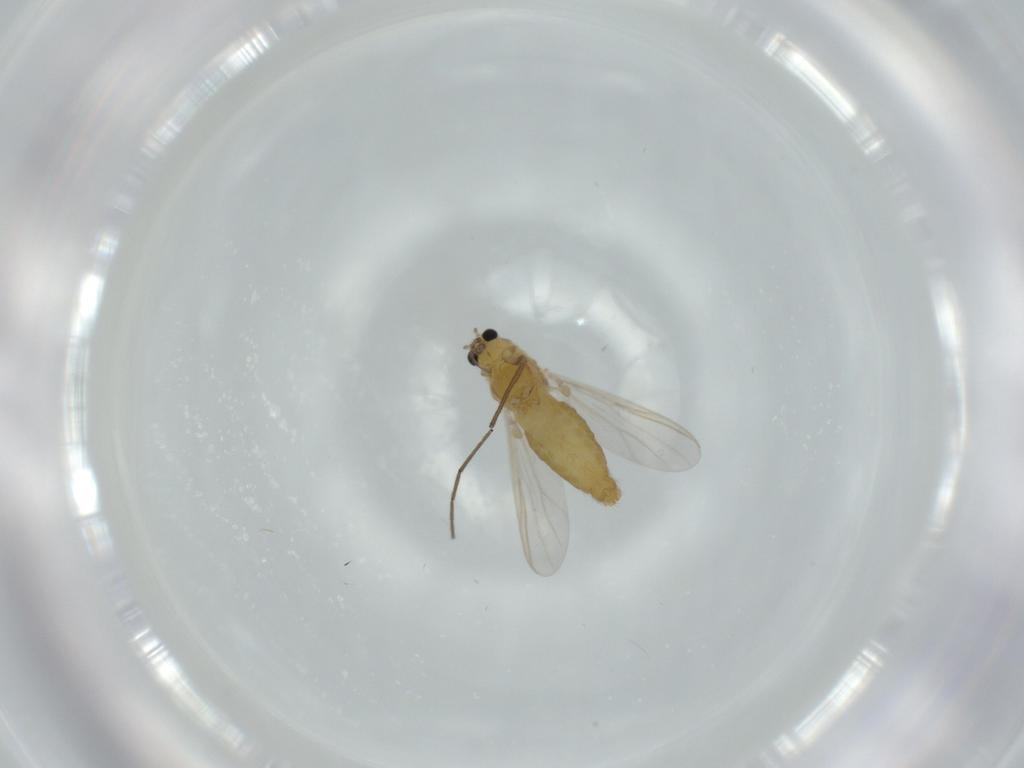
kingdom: Animalia
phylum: Arthropoda
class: Insecta
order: Diptera
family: Chironomidae
